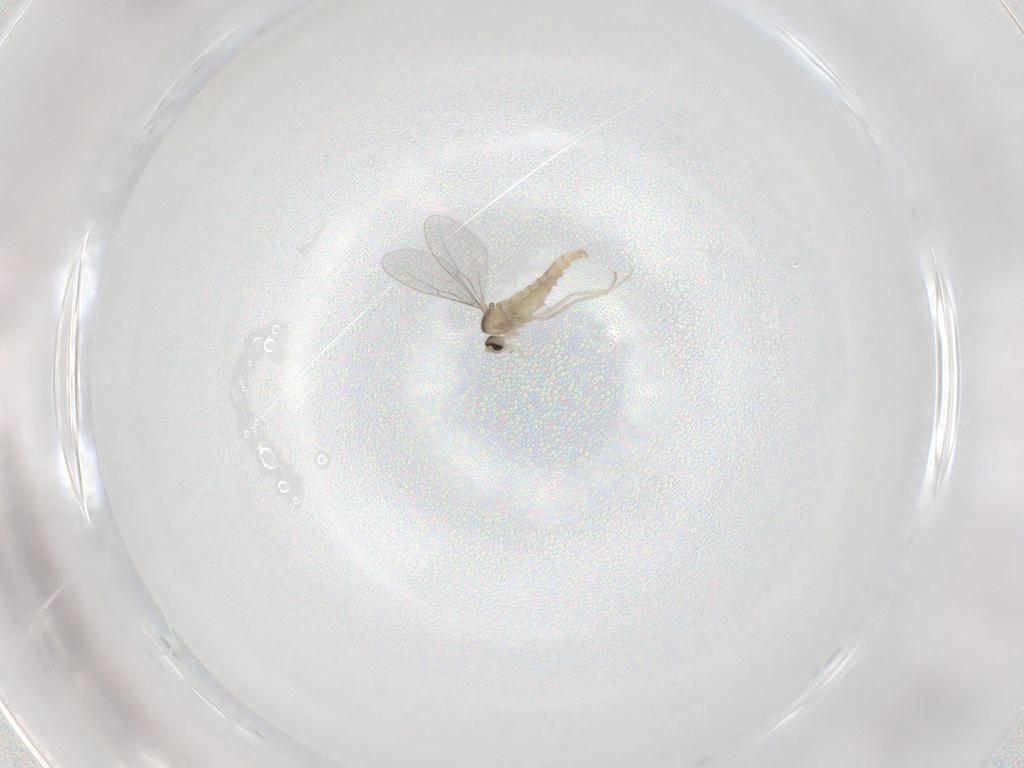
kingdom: Animalia
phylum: Arthropoda
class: Insecta
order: Diptera
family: Cecidomyiidae
